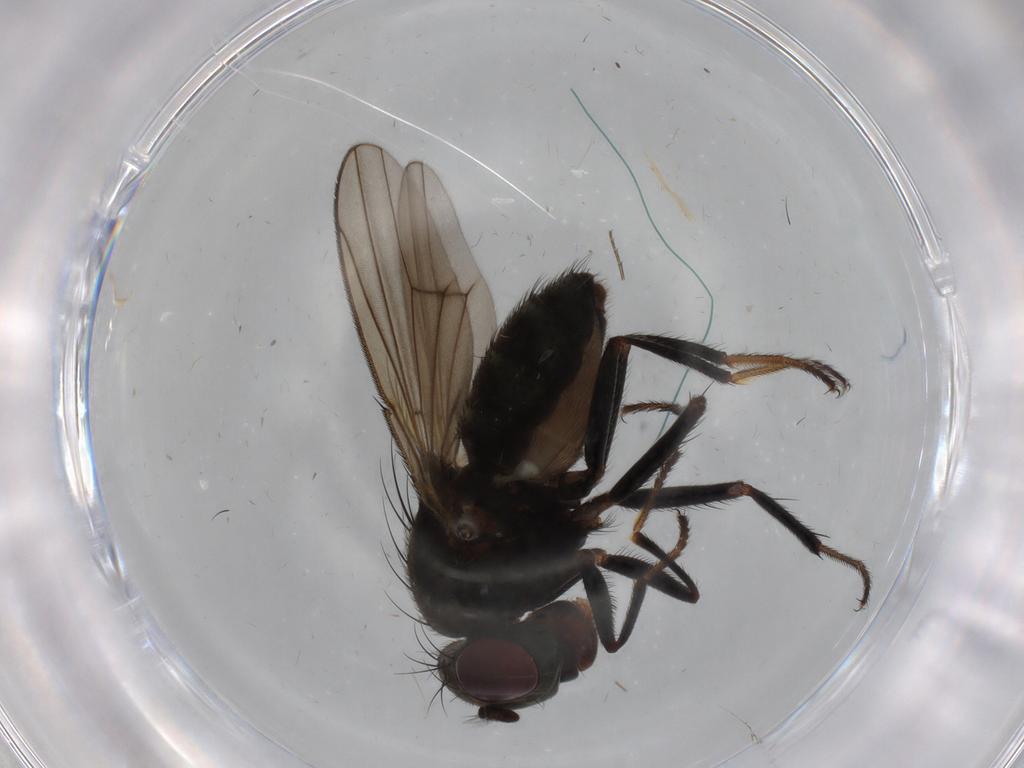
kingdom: Animalia
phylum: Arthropoda
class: Insecta
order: Diptera
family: Ephydridae
